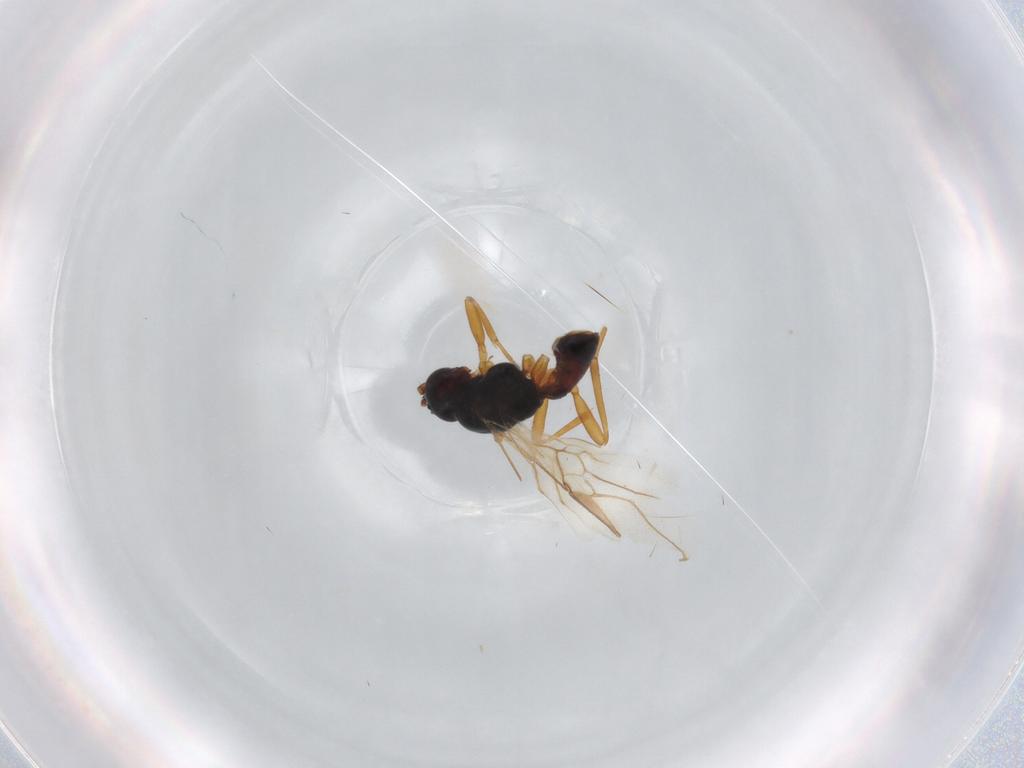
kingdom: Animalia
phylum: Arthropoda
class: Insecta
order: Hymenoptera
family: Braconidae
